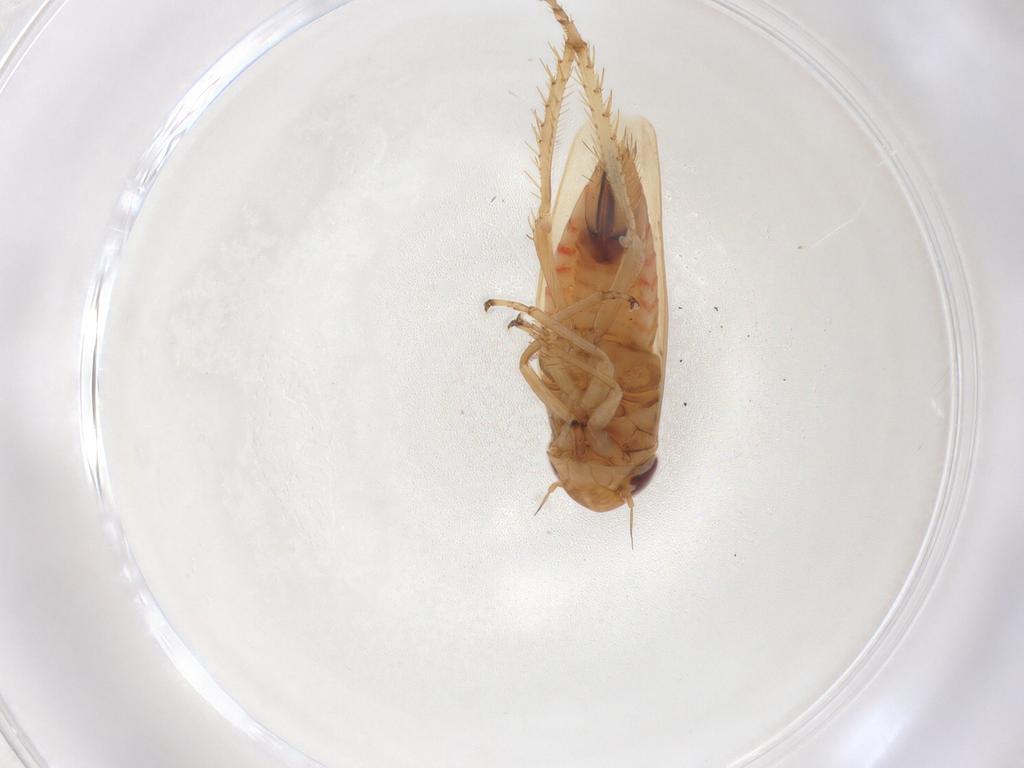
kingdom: Animalia
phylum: Arthropoda
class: Insecta
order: Hemiptera
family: Cicadellidae
